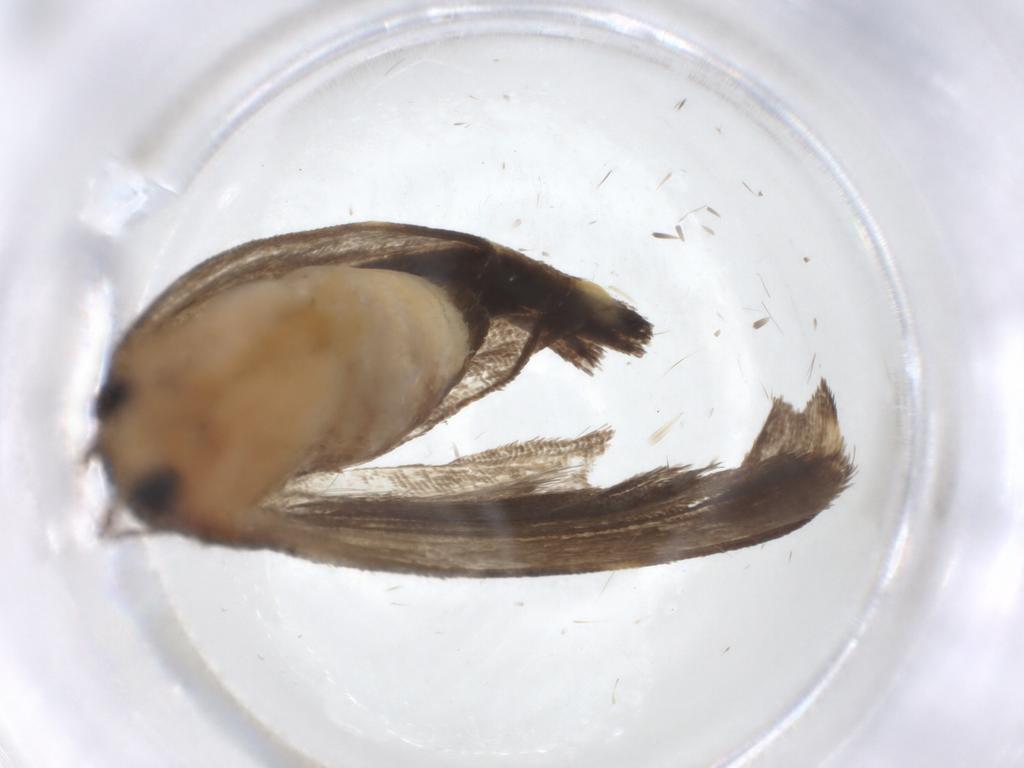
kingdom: Animalia
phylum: Arthropoda
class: Insecta
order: Lepidoptera
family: Immidae
